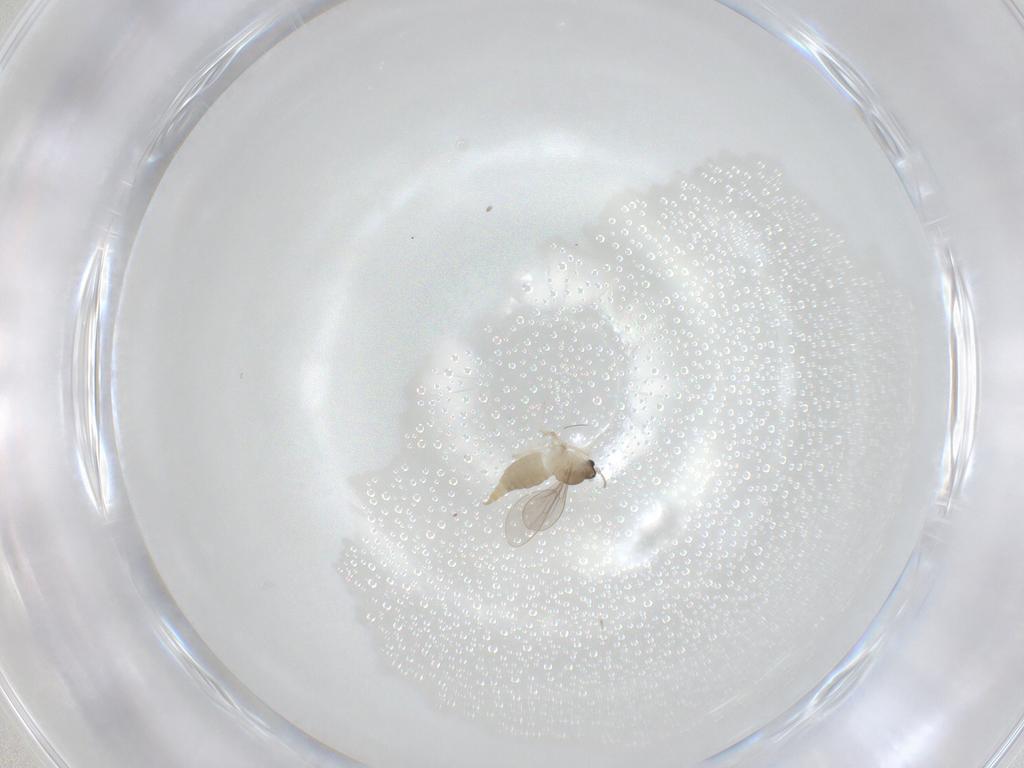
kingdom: Animalia
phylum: Arthropoda
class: Insecta
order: Diptera
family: Cecidomyiidae
